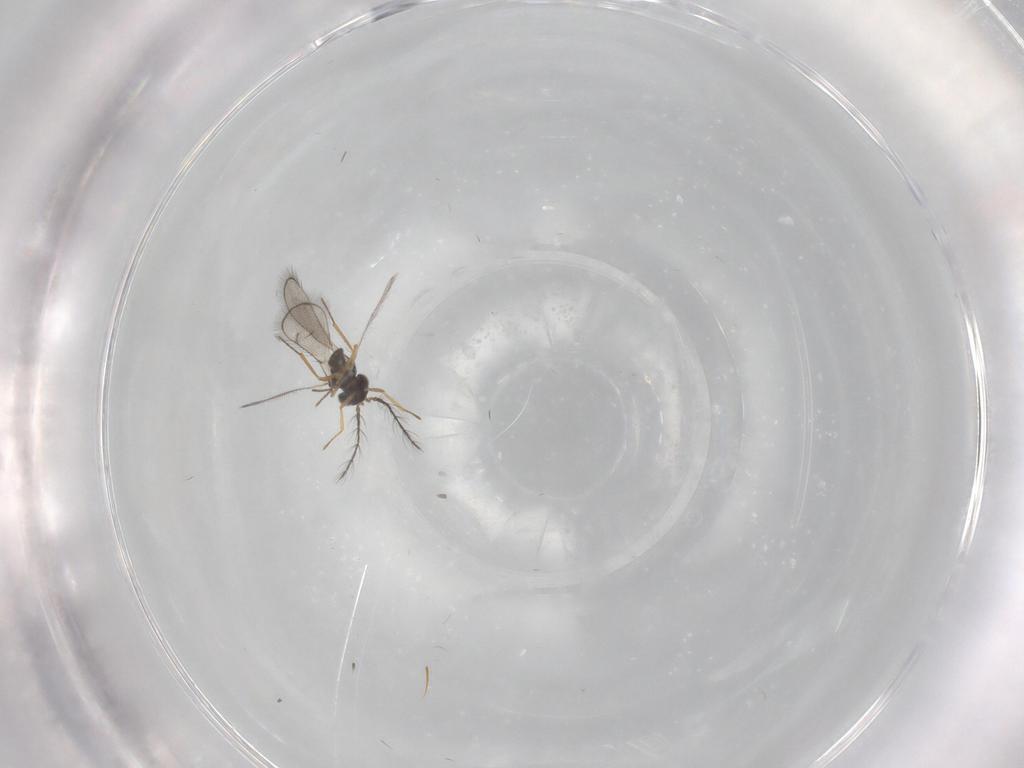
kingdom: Animalia
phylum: Arthropoda
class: Insecta
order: Hymenoptera
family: Eulophidae
